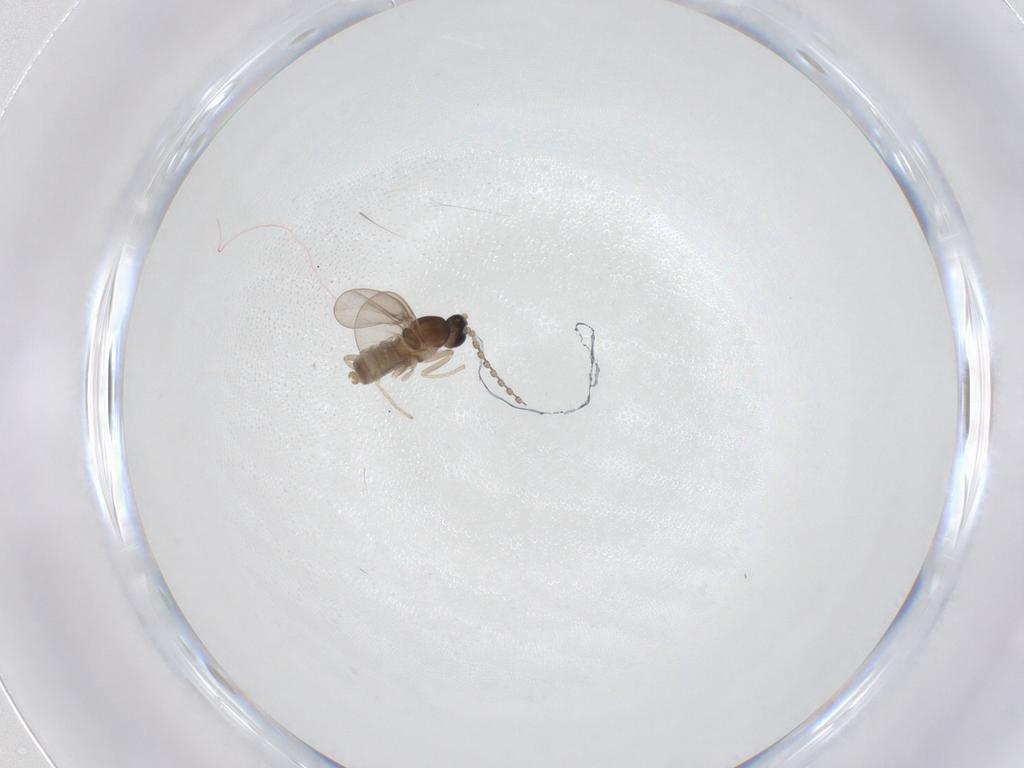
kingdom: Animalia
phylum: Arthropoda
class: Insecta
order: Diptera
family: Cecidomyiidae
